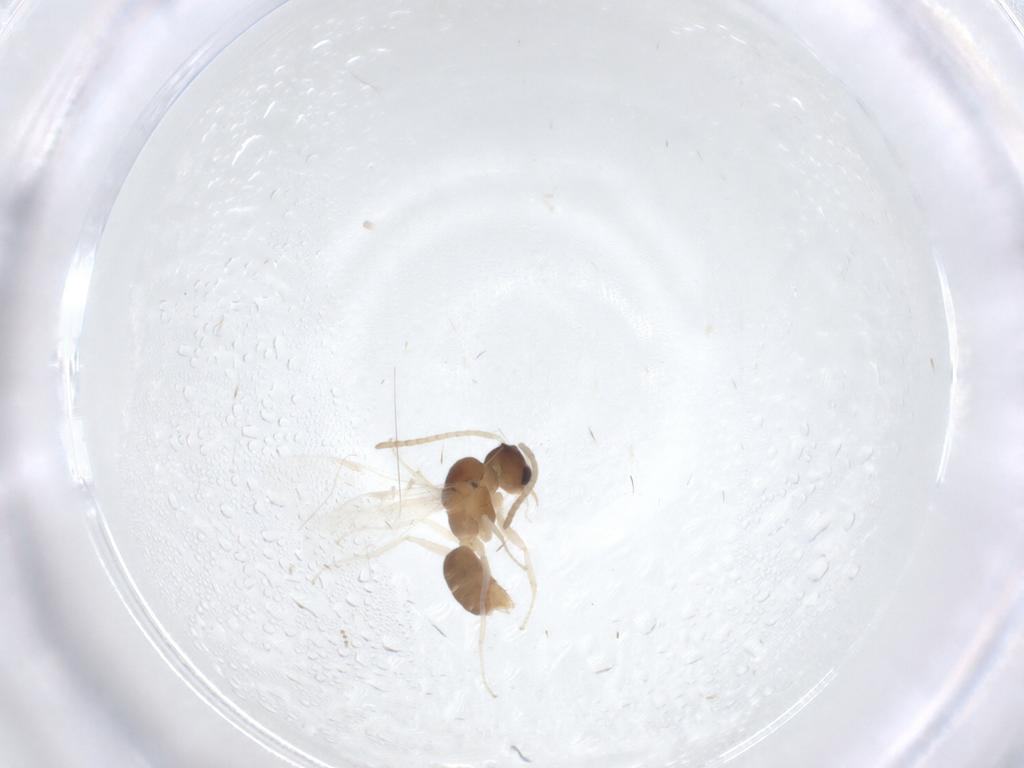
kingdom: Animalia
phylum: Arthropoda
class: Insecta
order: Hymenoptera
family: Formicidae
